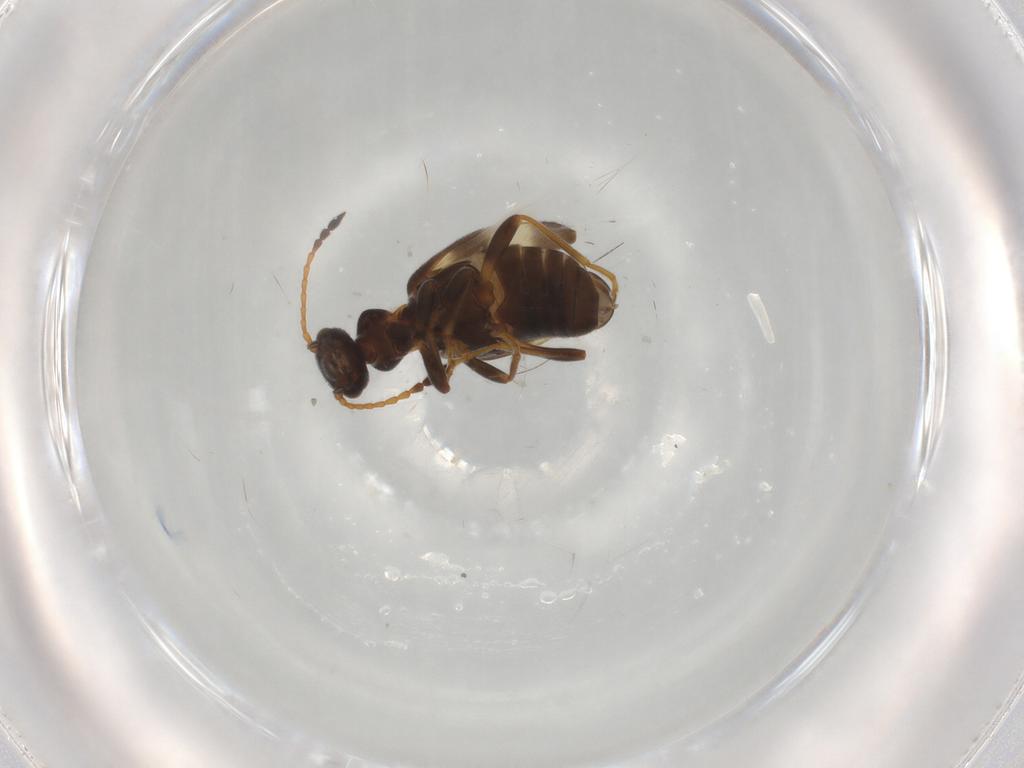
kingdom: Animalia
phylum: Arthropoda
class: Insecta
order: Coleoptera
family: Anthicidae
